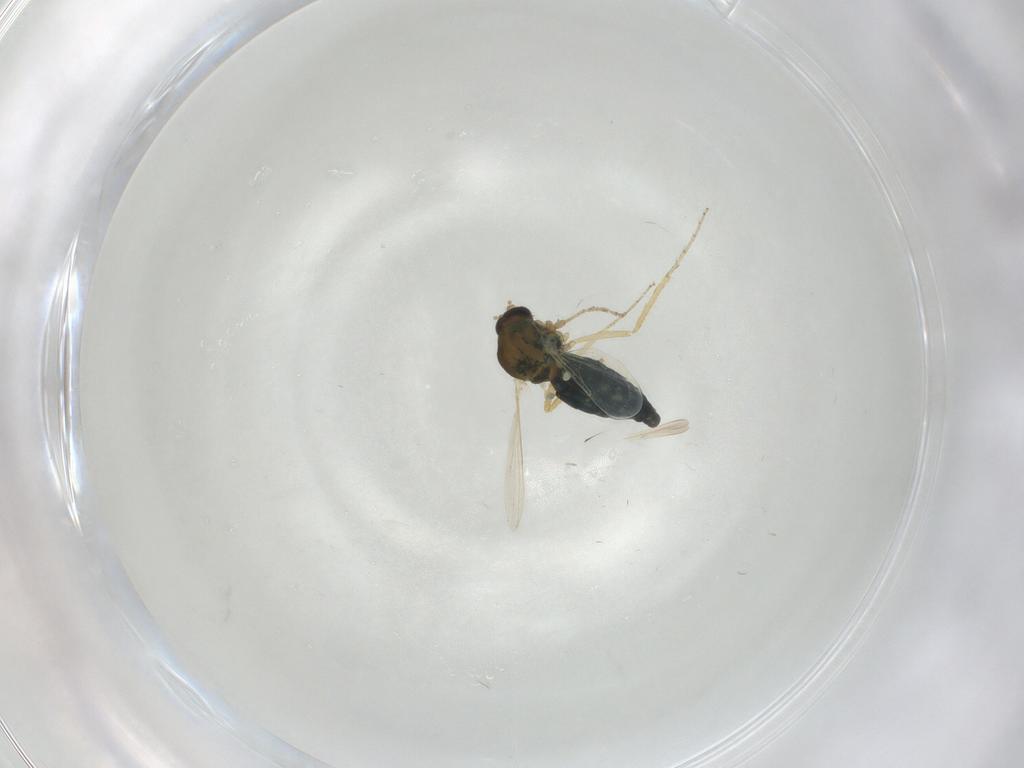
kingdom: Animalia
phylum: Arthropoda
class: Insecta
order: Diptera
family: Ceratopogonidae
